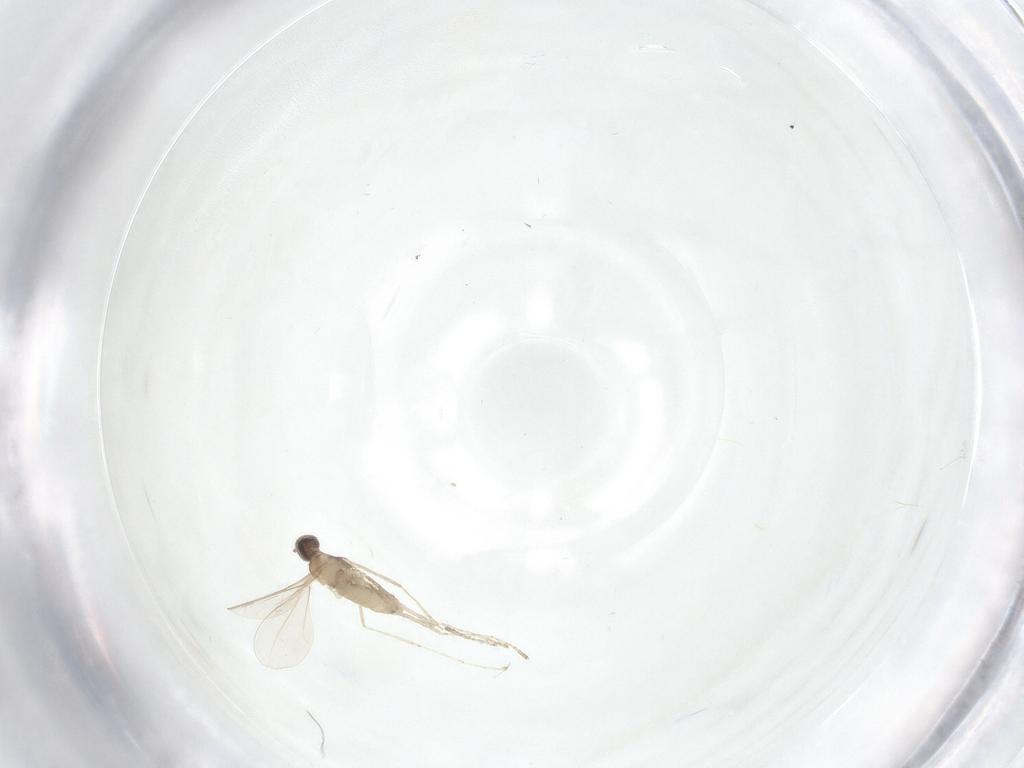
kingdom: Animalia
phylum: Arthropoda
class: Insecta
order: Diptera
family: Cecidomyiidae
